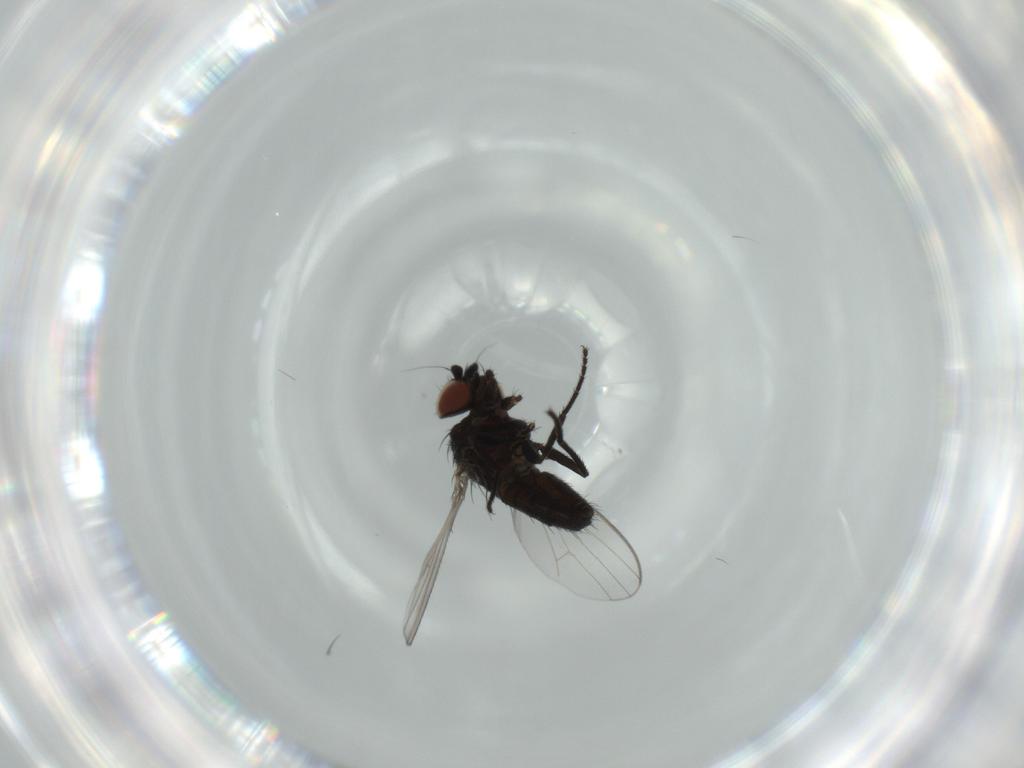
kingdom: Animalia
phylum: Arthropoda
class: Insecta
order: Diptera
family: Milichiidae
